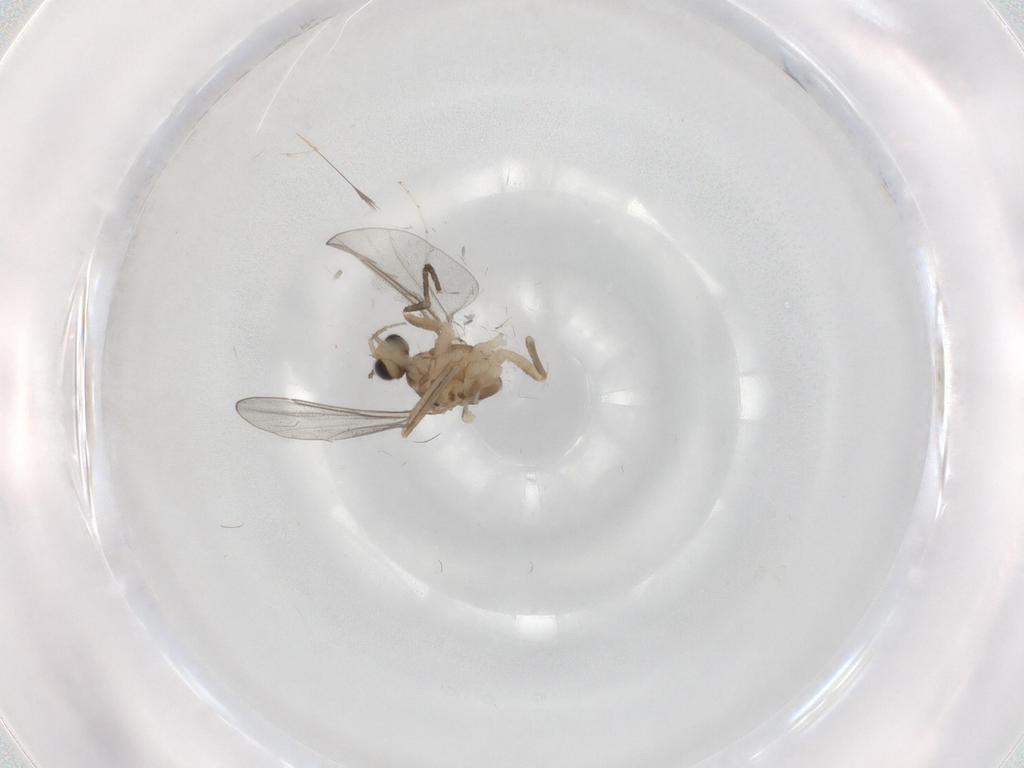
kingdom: Animalia
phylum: Arthropoda
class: Insecta
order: Diptera
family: Cecidomyiidae
